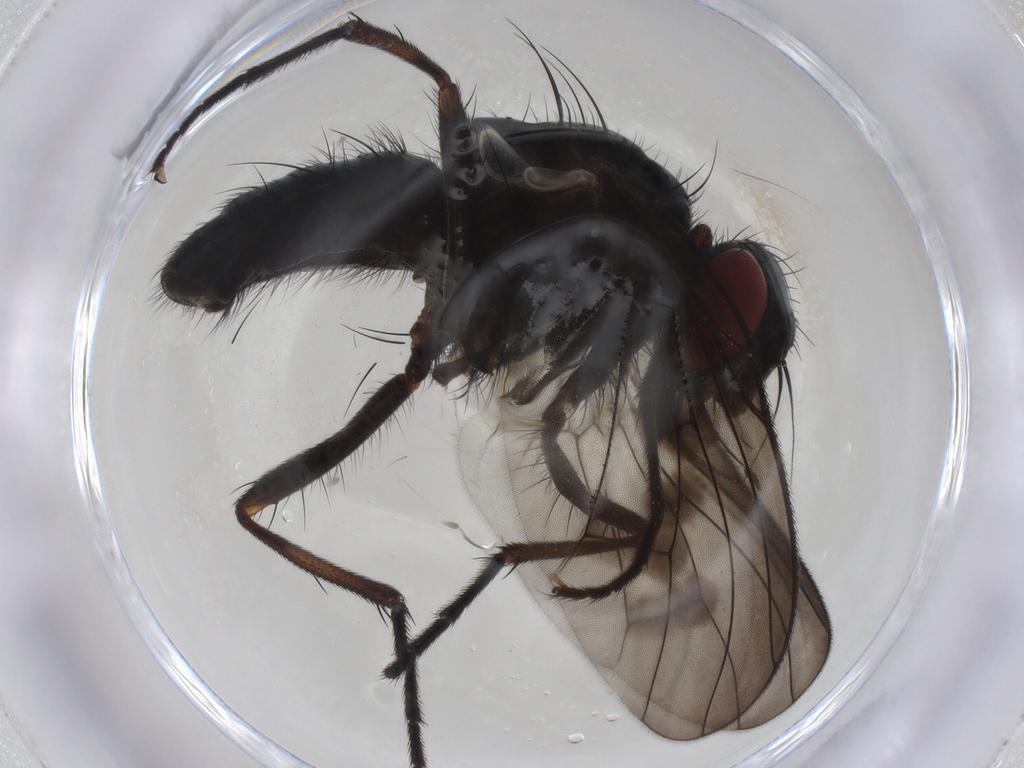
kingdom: Animalia
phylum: Arthropoda
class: Insecta
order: Diptera
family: Muscidae
